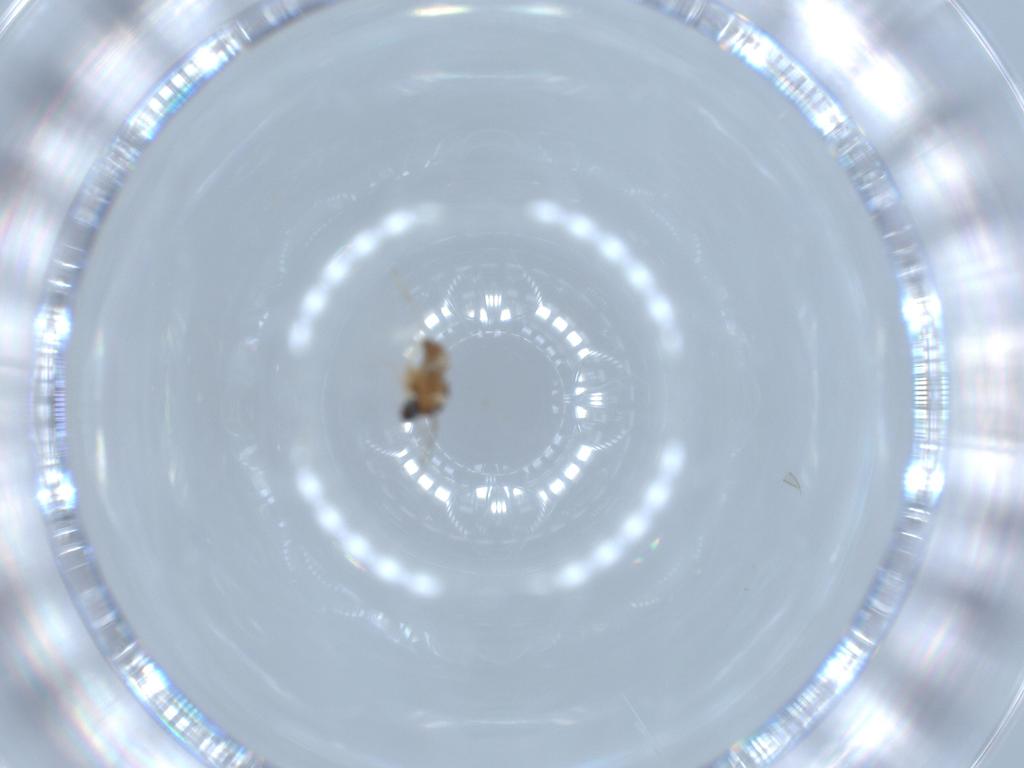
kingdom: Animalia
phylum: Arthropoda
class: Insecta
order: Diptera
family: Cecidomyiidae
